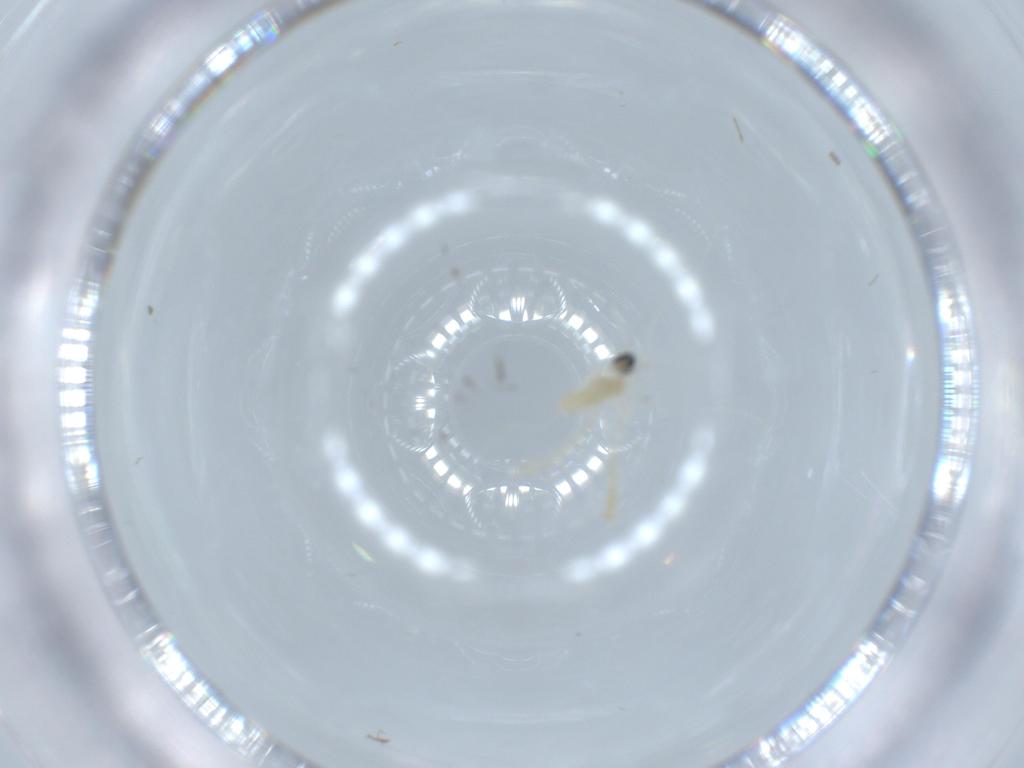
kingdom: Animalia
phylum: Arthropoda
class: Insecta
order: Diptera
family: Cecidomyiidae
